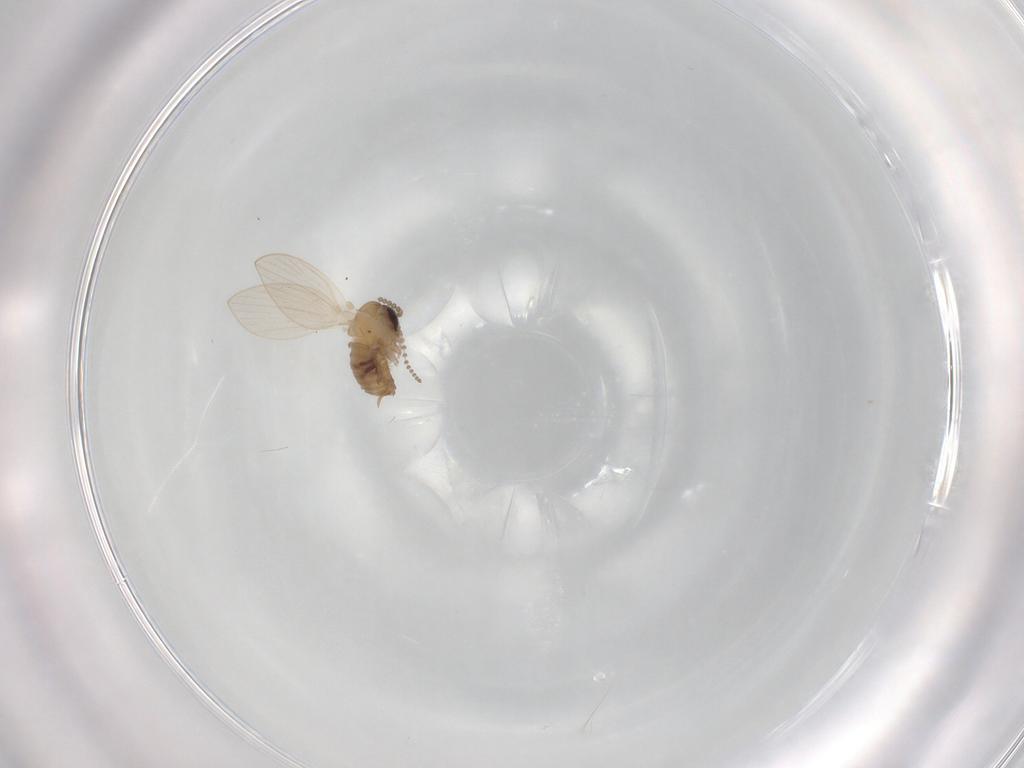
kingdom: Animalia
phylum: Arthropoda
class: Insecta
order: Diptera
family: Psychodidae
